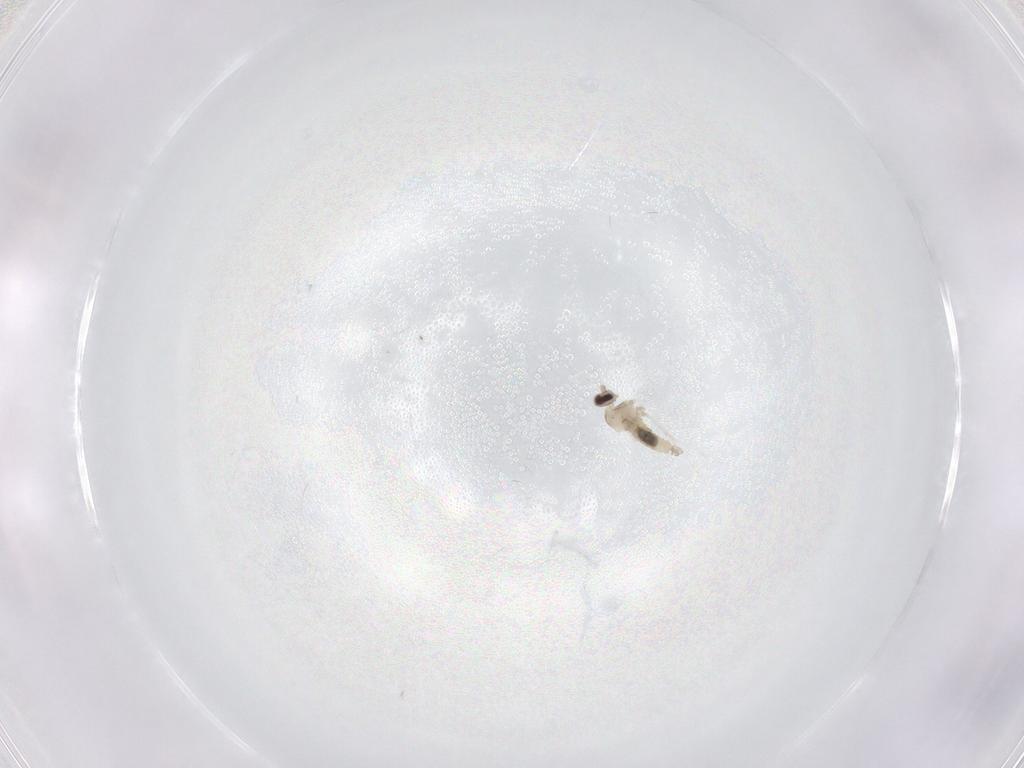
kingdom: Animalia
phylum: Arthropoda
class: Insecta
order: Diptera
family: Cecidomyiidae
